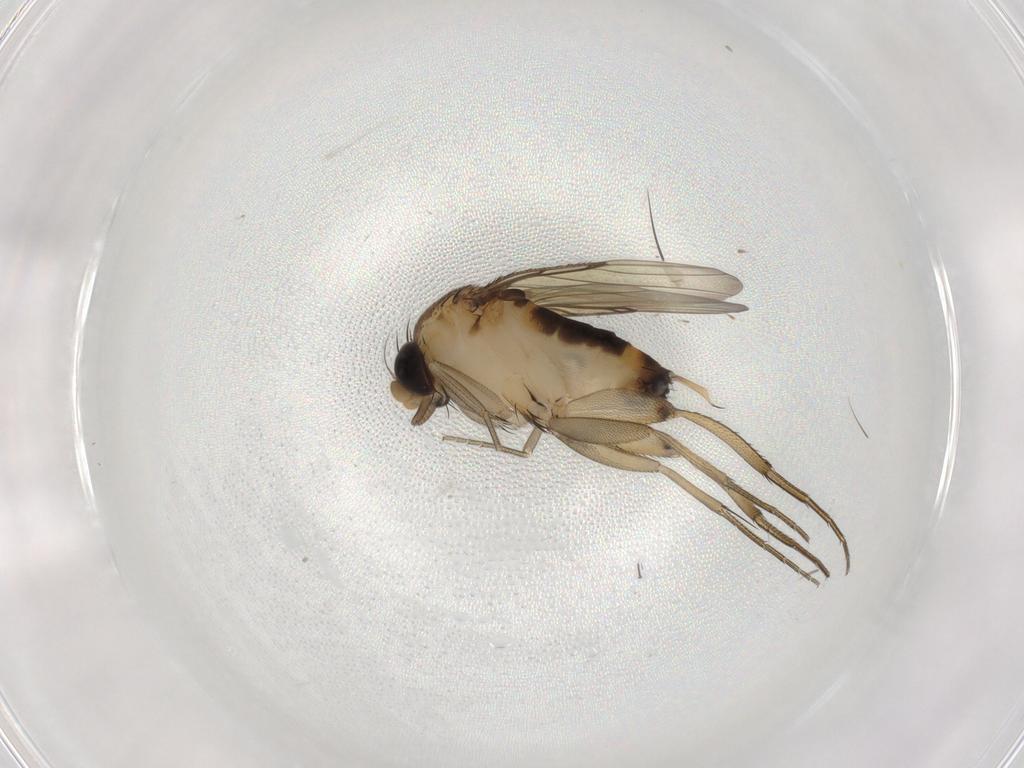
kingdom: Animalia
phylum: Arthropoda
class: Insecta
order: Diptera
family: Phoridae
